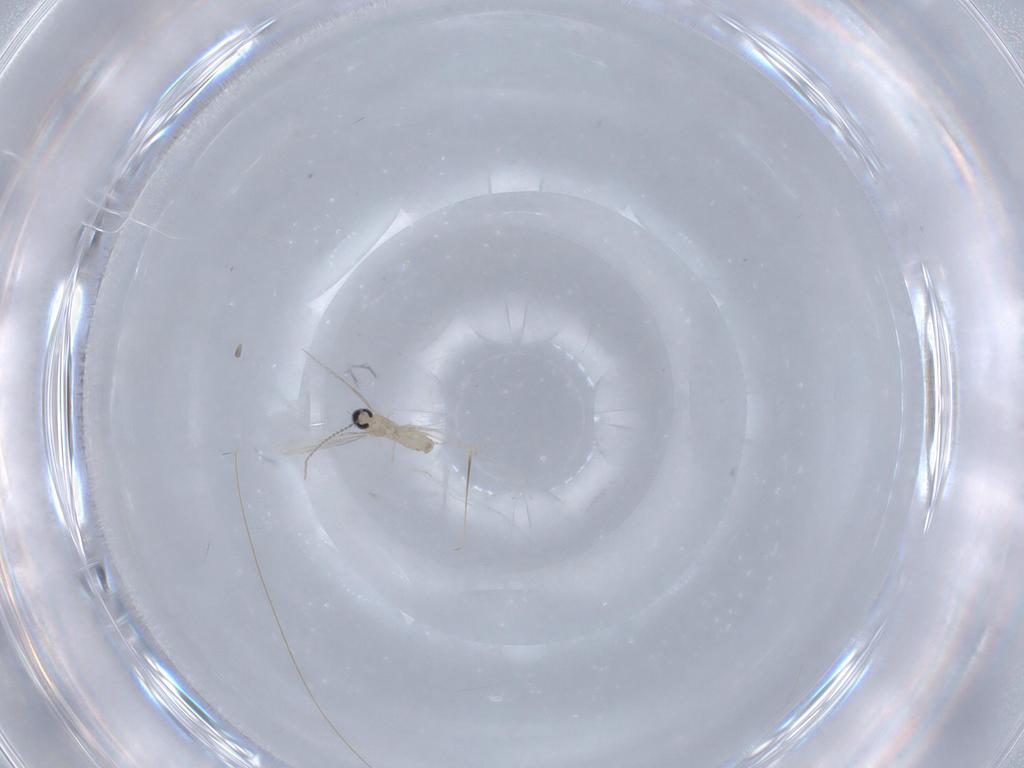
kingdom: Animalia
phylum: Arthropoda
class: Insecta
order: Diptera
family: Cecidomyiidae
